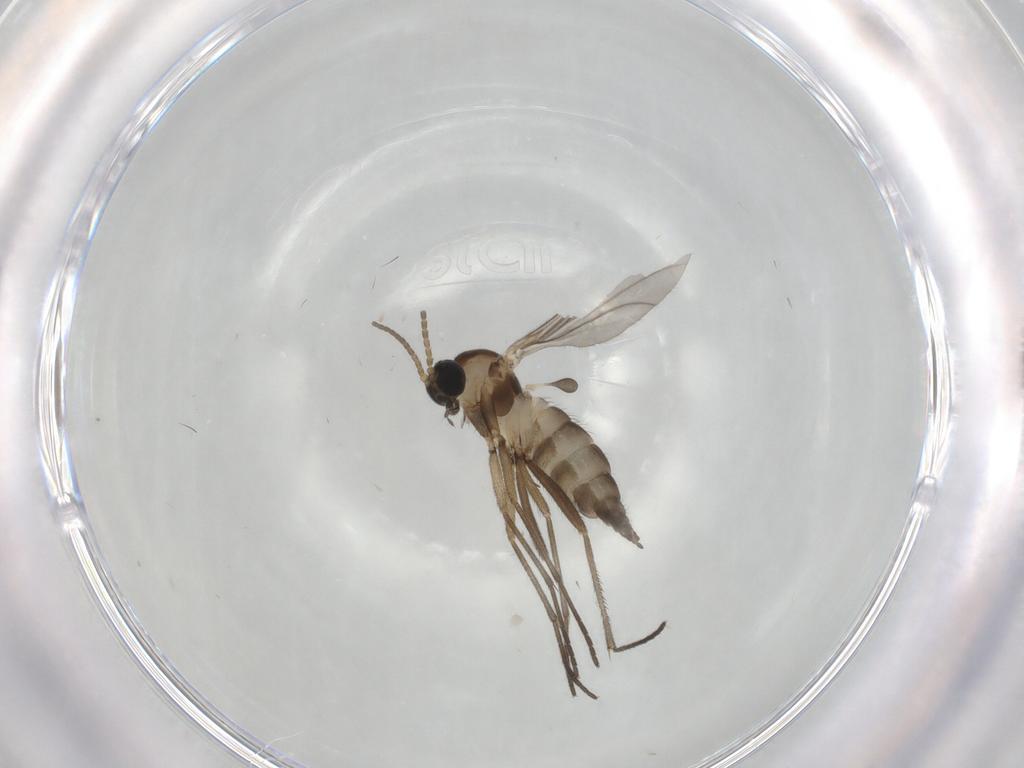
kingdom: Animalia
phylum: Arthropoda
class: Insecta
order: Diptera
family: Sciaridae
